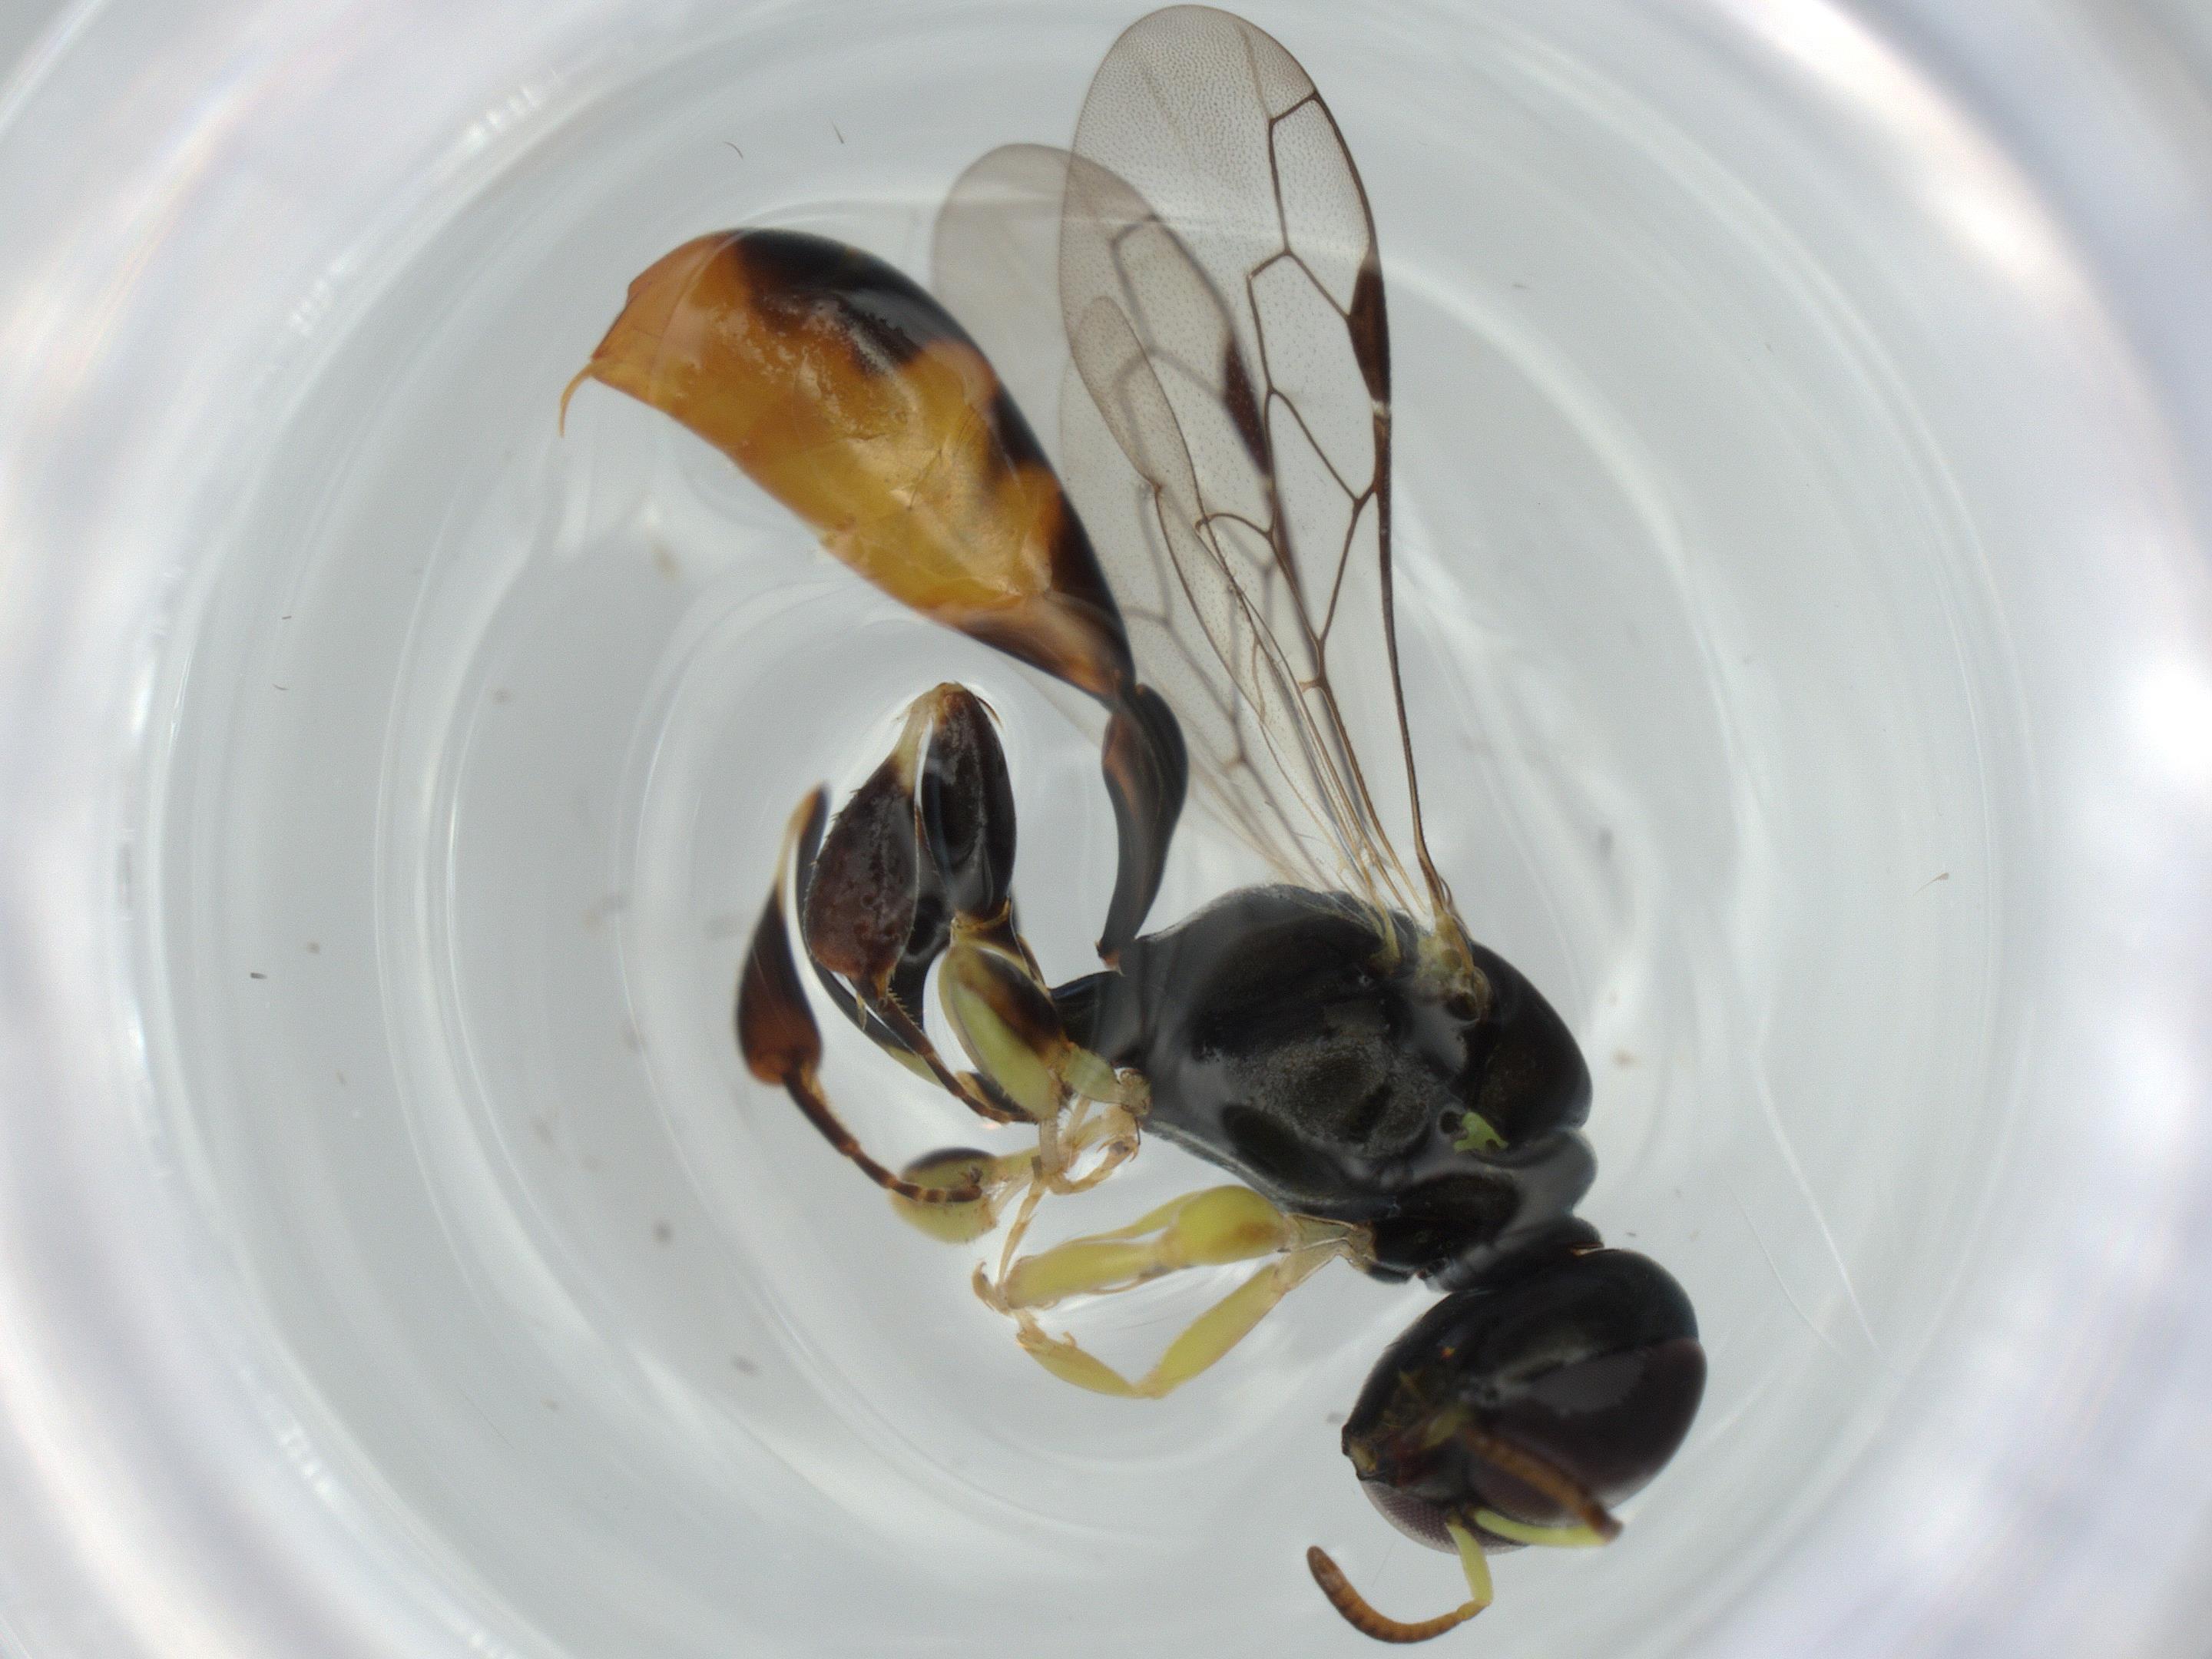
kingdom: Animalia
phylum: Arthropoda
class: Insecta
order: Hymenoptera
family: Crabronidae
